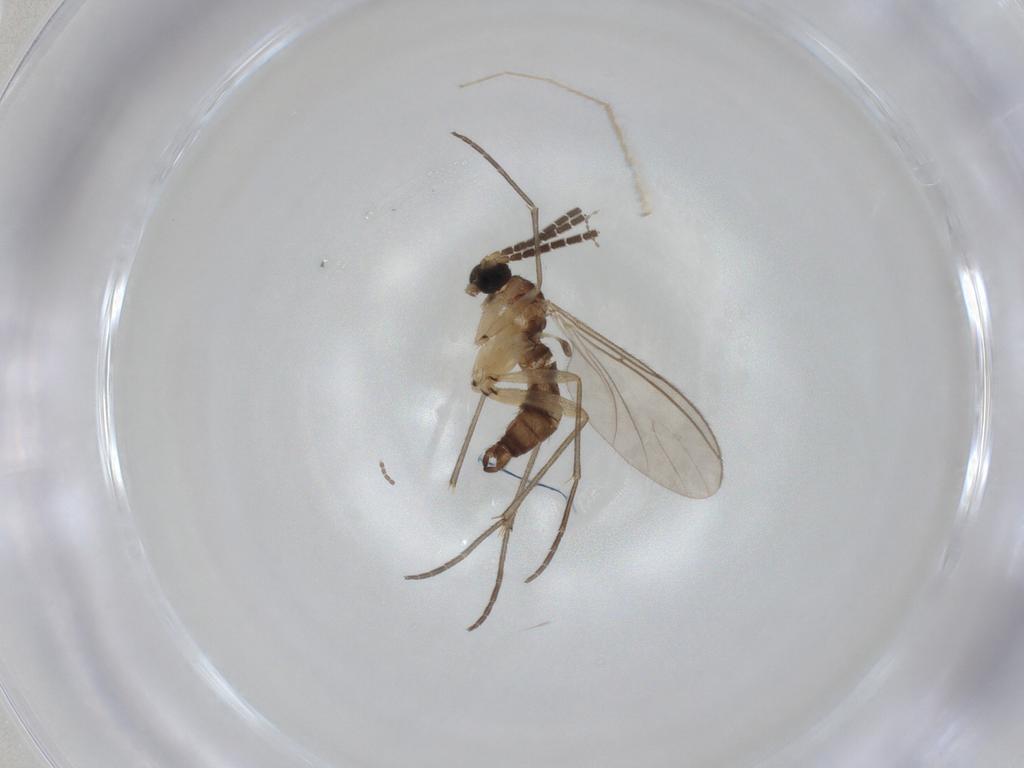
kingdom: Animalia
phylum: Arthropoda
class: Insecta
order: Diptera
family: Cecidomyiidae
